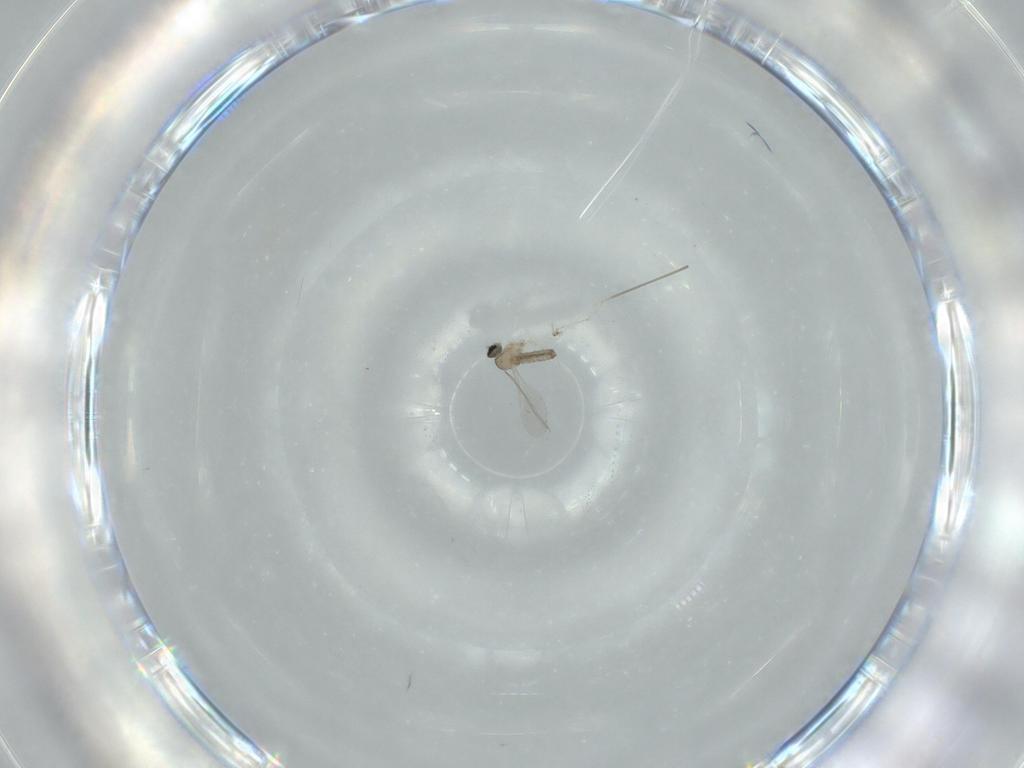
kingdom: Animalia
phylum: Arthropoda
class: Insecta
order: Diptera
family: Cecidomyiidae
